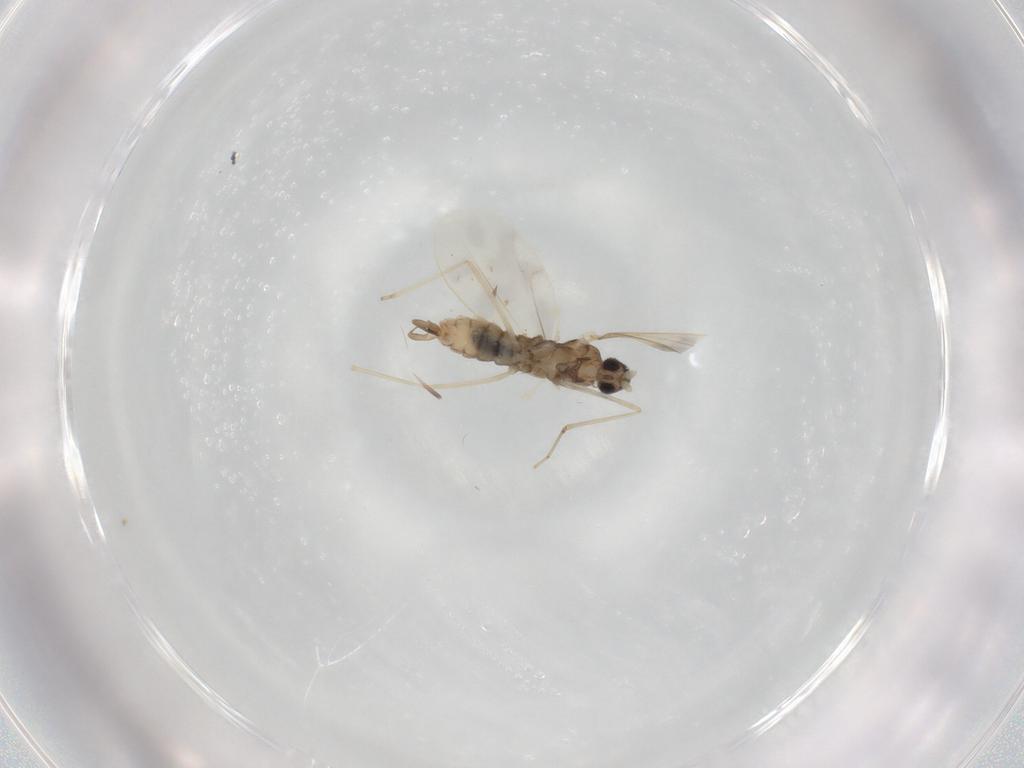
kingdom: Animalia
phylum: Arthropoda
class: Insecta
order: Diptera
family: Cecidomyiidae
